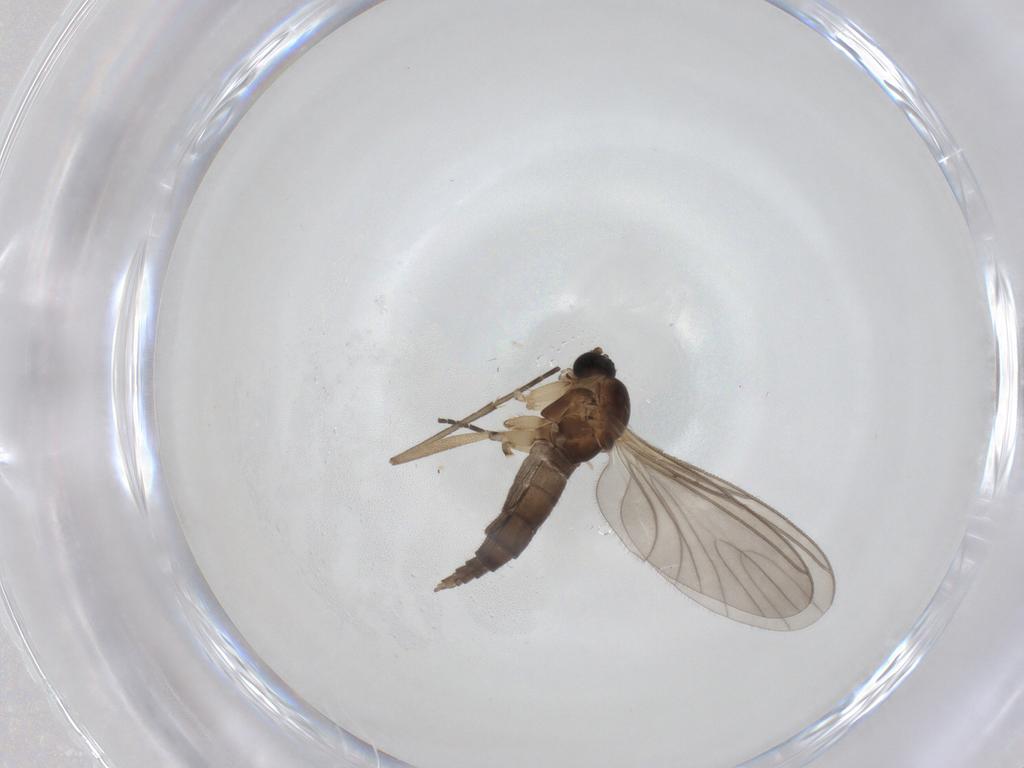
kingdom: Animalia
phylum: Arthropoda
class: Insecta
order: Diptera
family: Sciaridae
